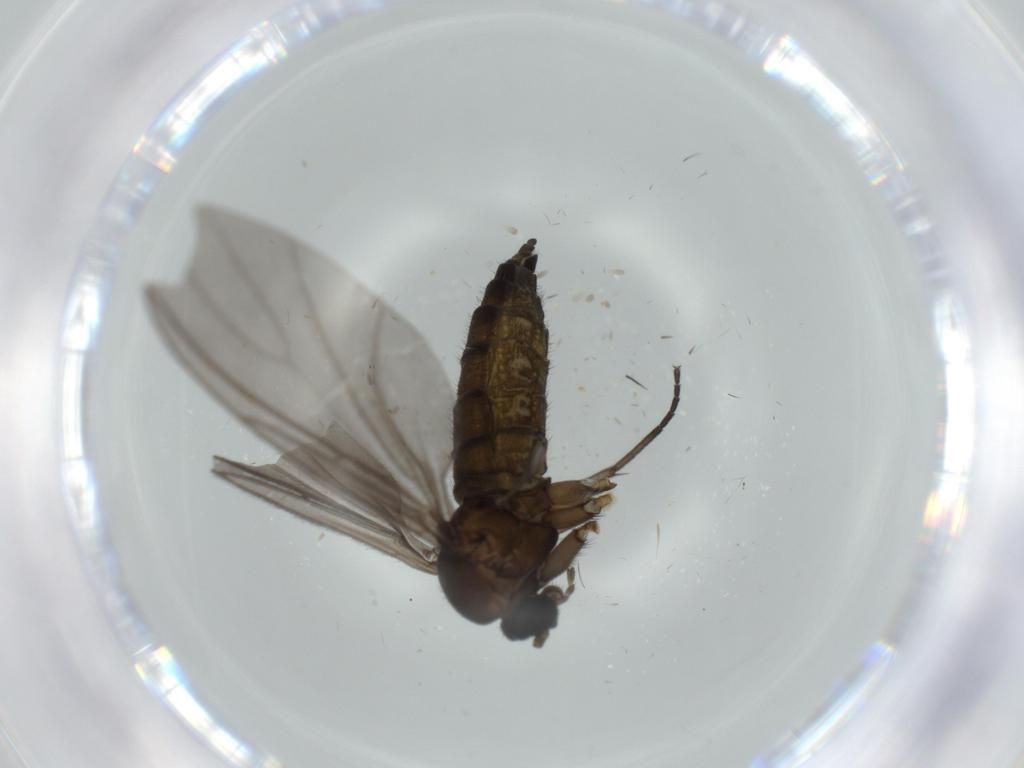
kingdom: Animalia
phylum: Arthropoda
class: Insecta
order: Diptera
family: Sciaridae
